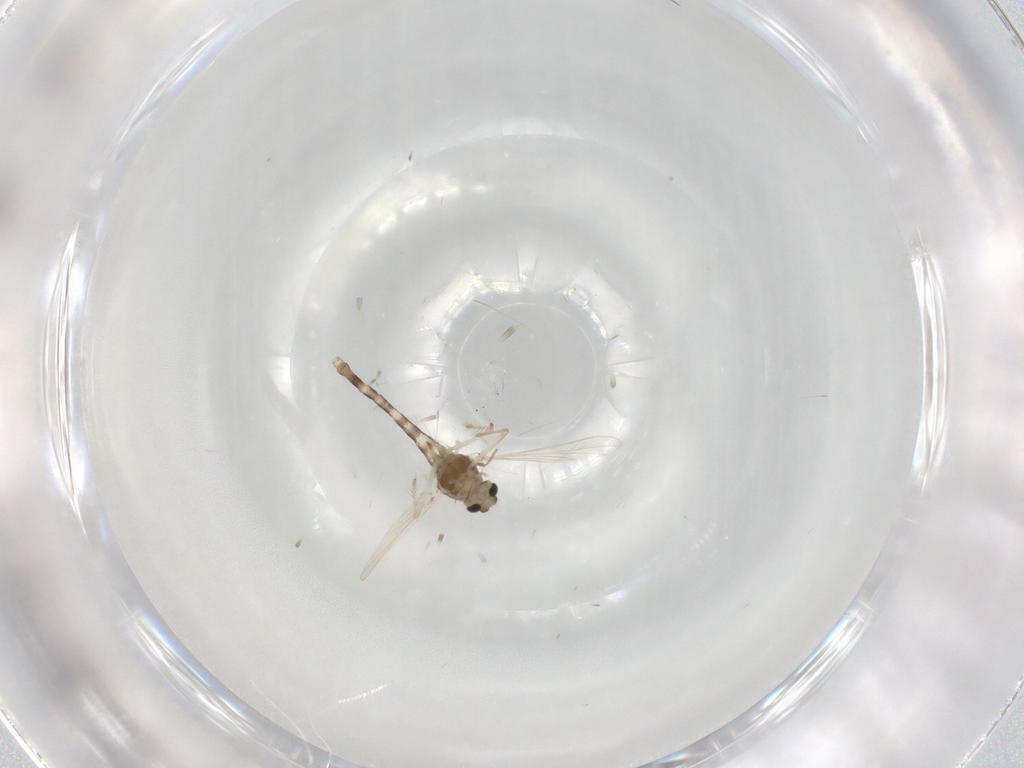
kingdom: Animalia
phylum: Arthropoda
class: Insecta
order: Diptera
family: Chironomidae
